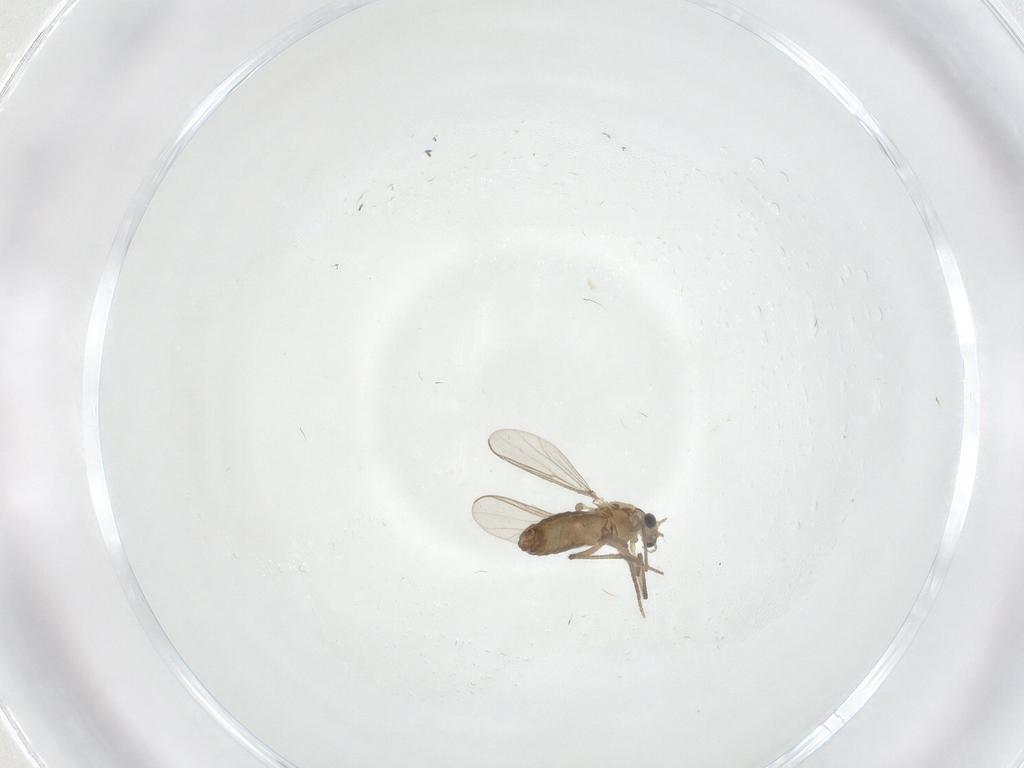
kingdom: Animalia
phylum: Arthropoda
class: Insecta
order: Diptera
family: Chironomidae
